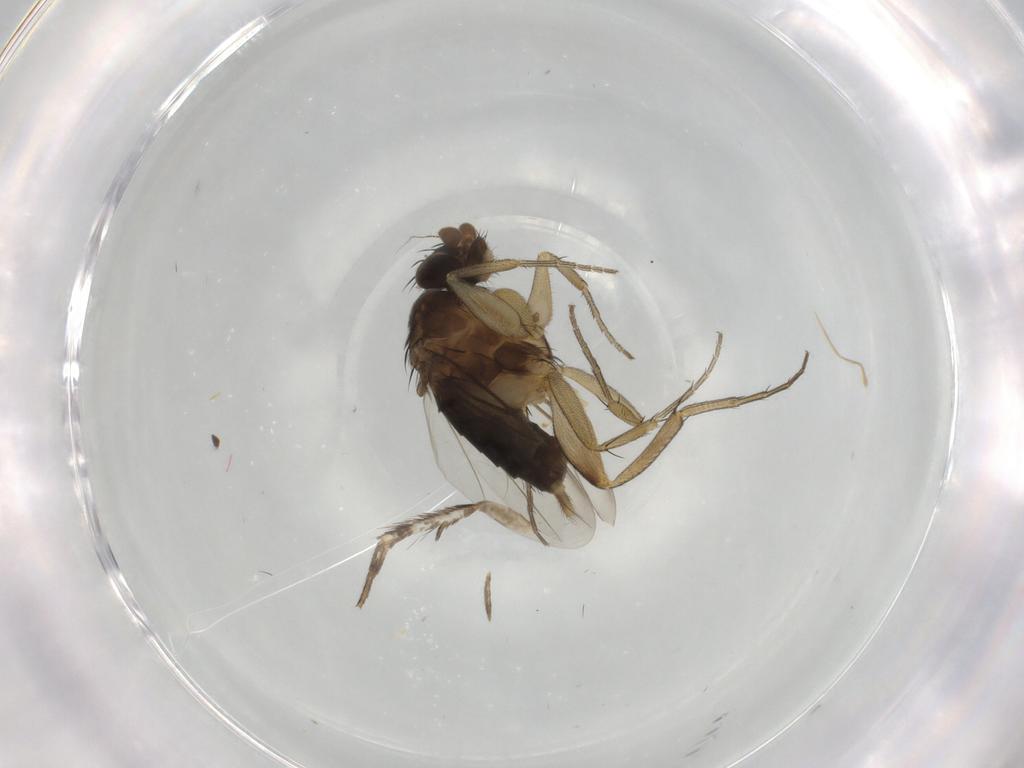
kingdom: Animalia
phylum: Arthropoda
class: Insecta
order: Diptera
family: Phoridae
